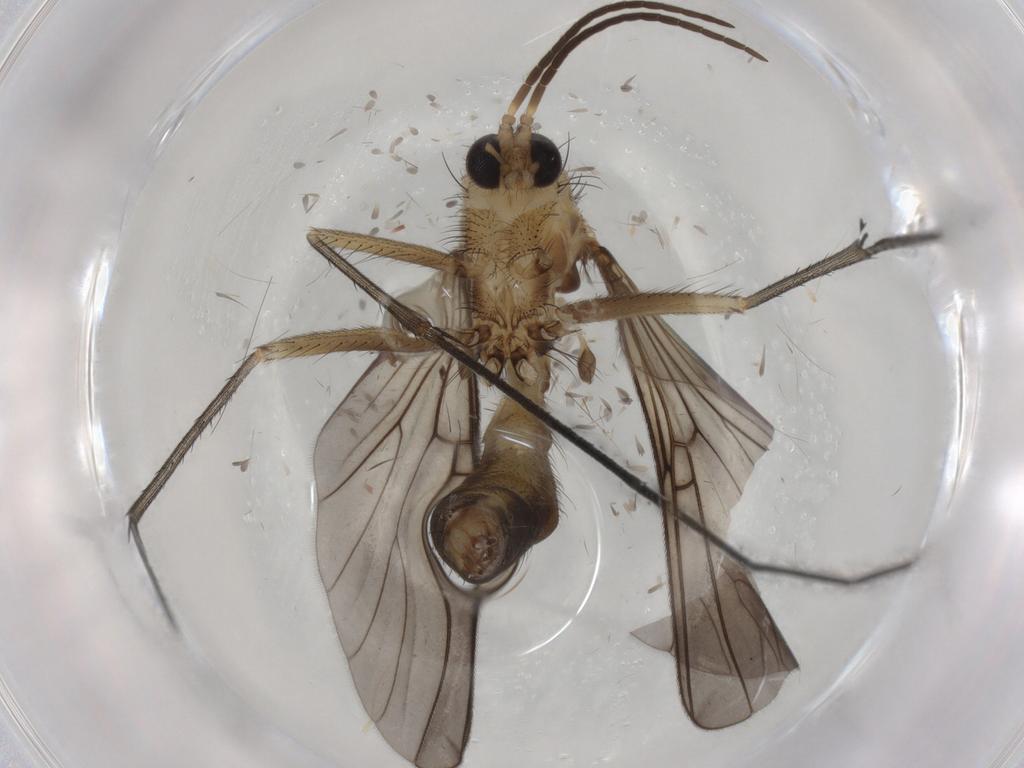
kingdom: Animalia
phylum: Arthropoda
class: Insecta
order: Diptera
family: Mycetophilidae
